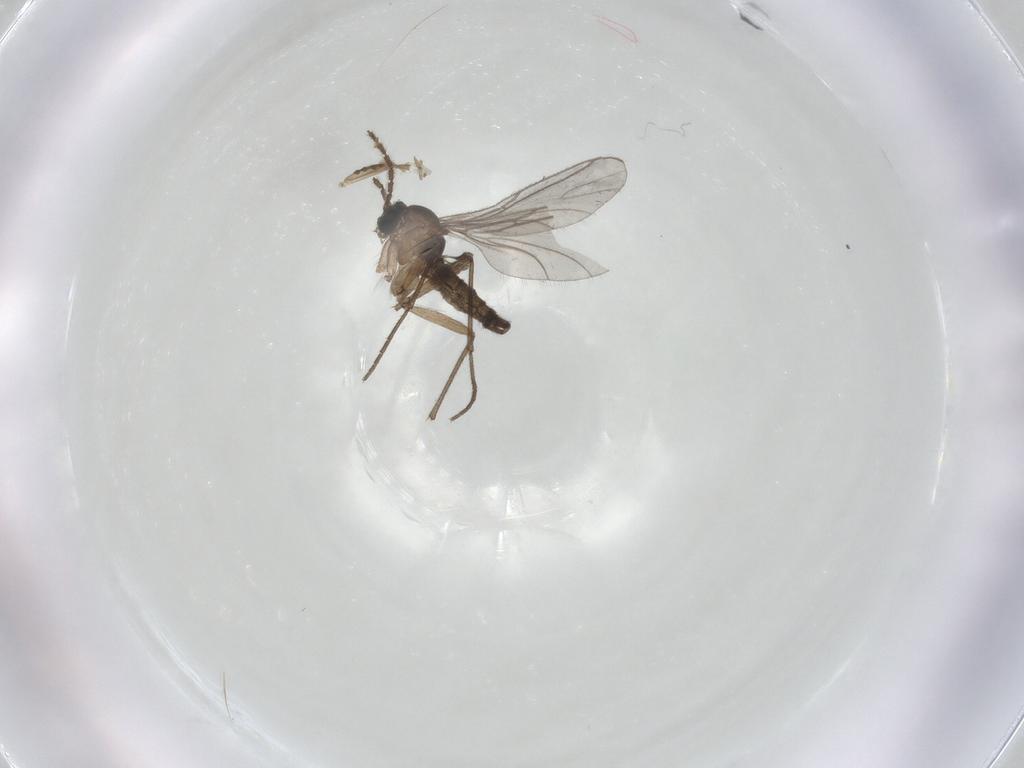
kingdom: Animalia
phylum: Arthropoda
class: Insecta
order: Diptera
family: Cecidomyiidae
